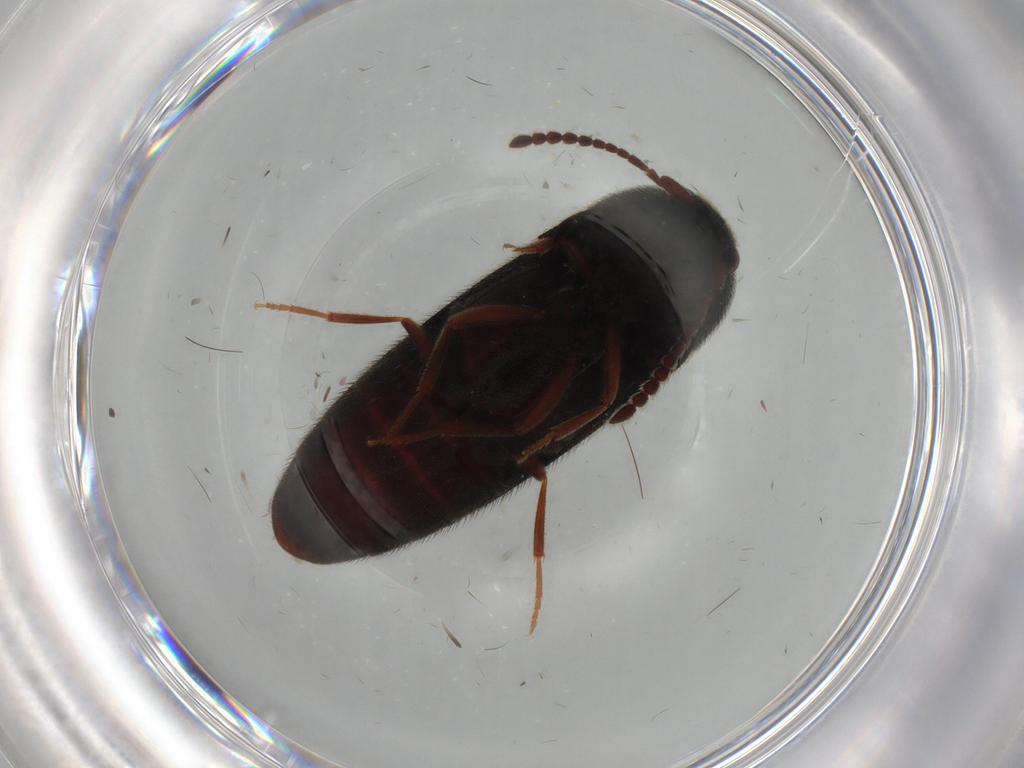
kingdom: Animalia
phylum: Arthropoda
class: Insecta
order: Coleoptera
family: Eucnemidae
